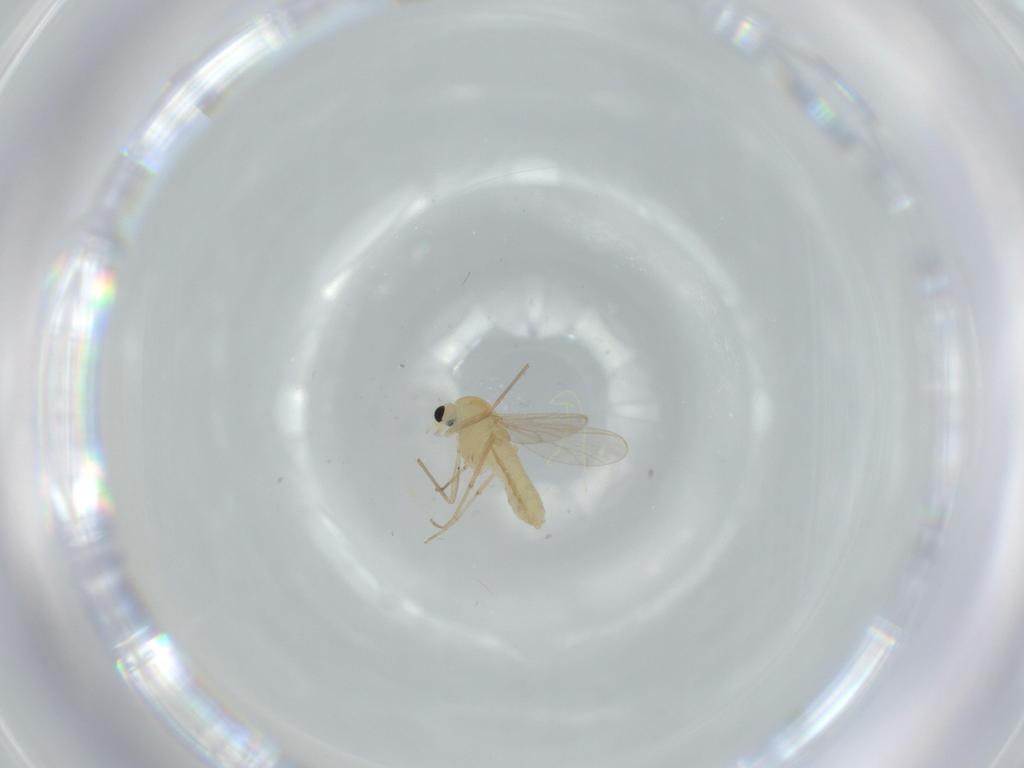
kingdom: Animalia
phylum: Arthropoda
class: Insecta
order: Diptera
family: Chironomidae
